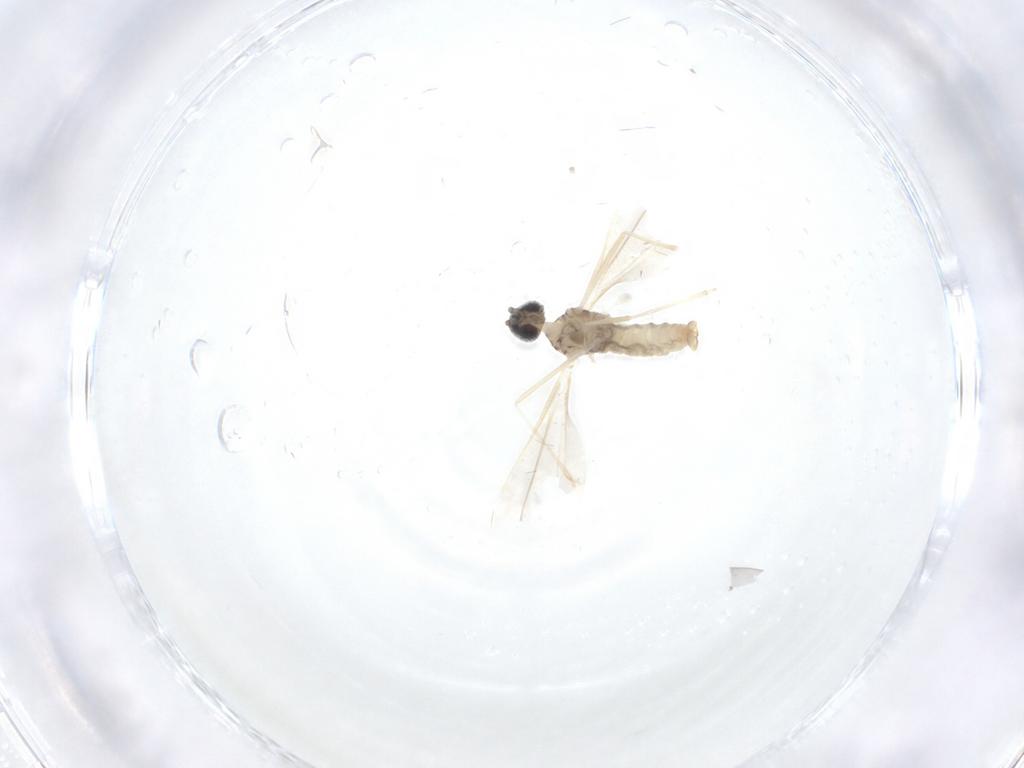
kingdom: Animalia
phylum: Arthropoda
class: Insecta
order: Diptera
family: Cecidomyiidae
